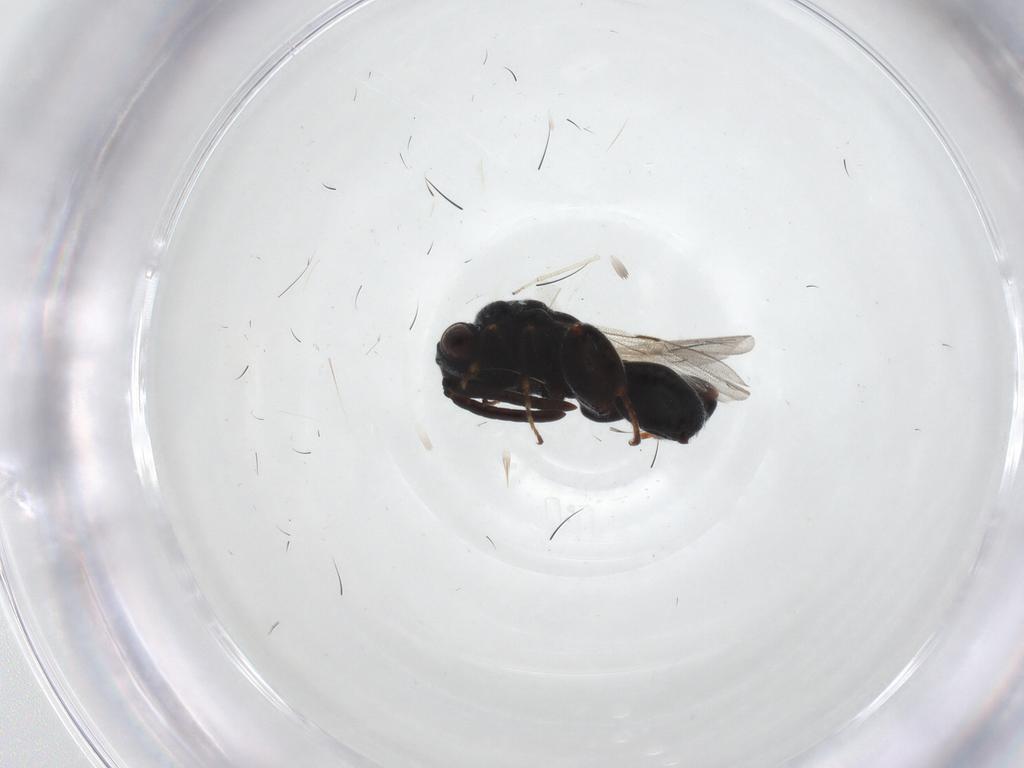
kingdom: Animalia
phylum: Arthropoda
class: Insecta
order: Hymenoptera
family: Chalcididae
